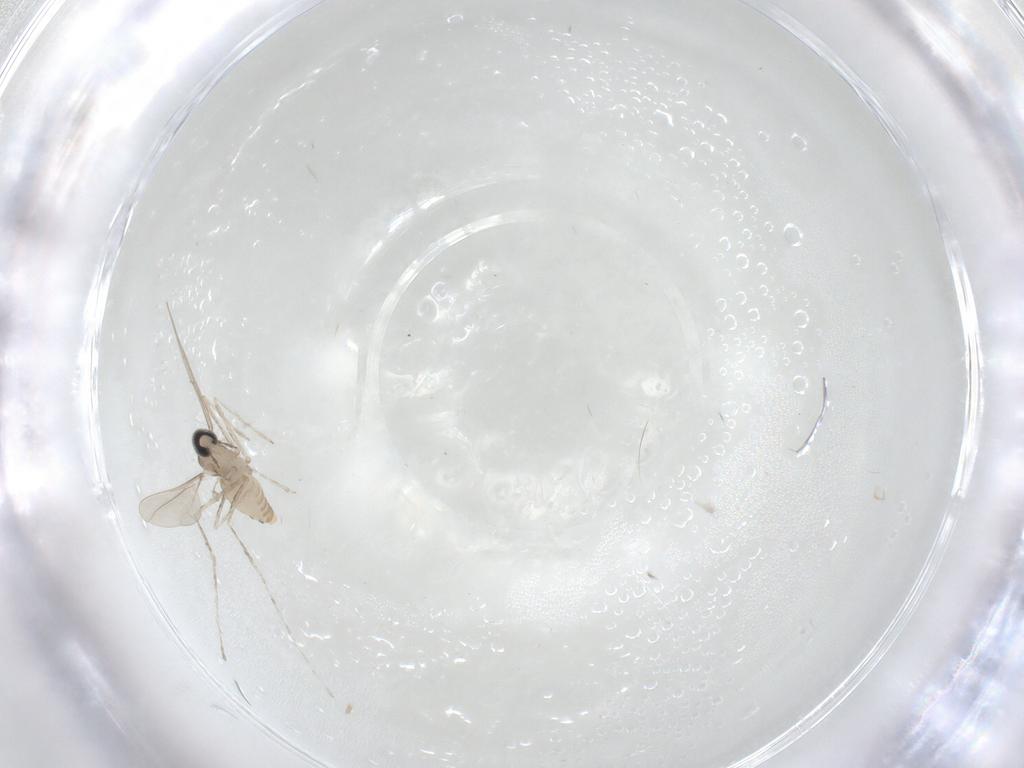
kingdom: Animalia
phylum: Arthropoda
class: Insecta
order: Diptera
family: Cecidomyiidae
